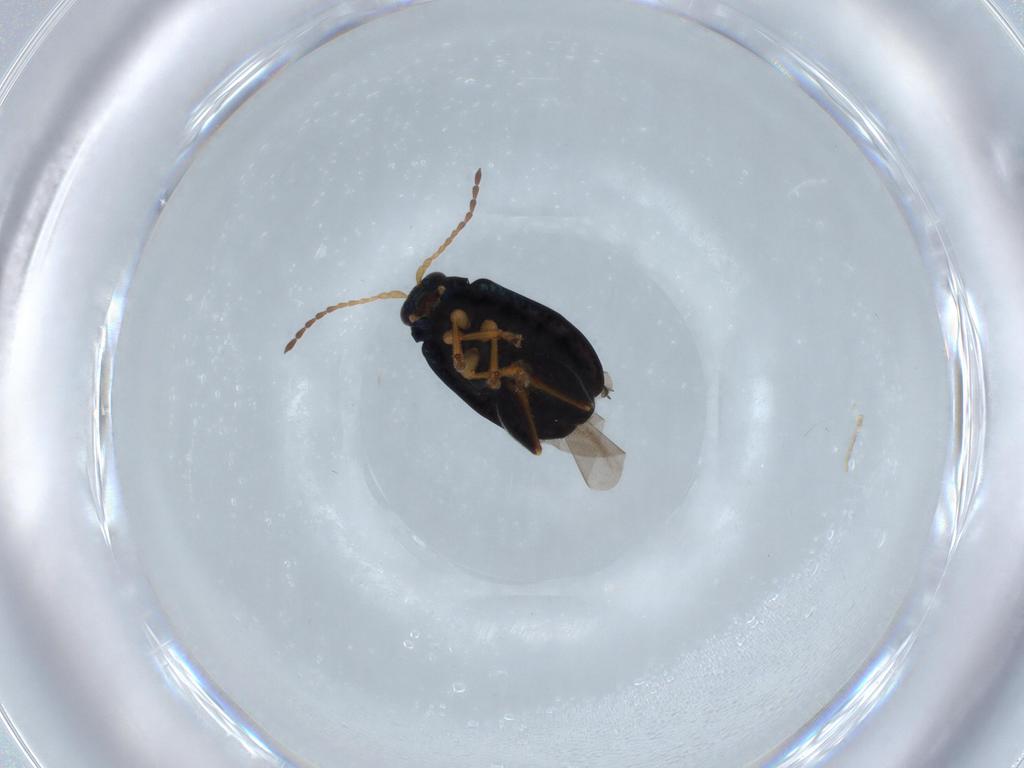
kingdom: Animalia
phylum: Arthropoda
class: Insecta
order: Coleoptera
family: Chrysomelidae
